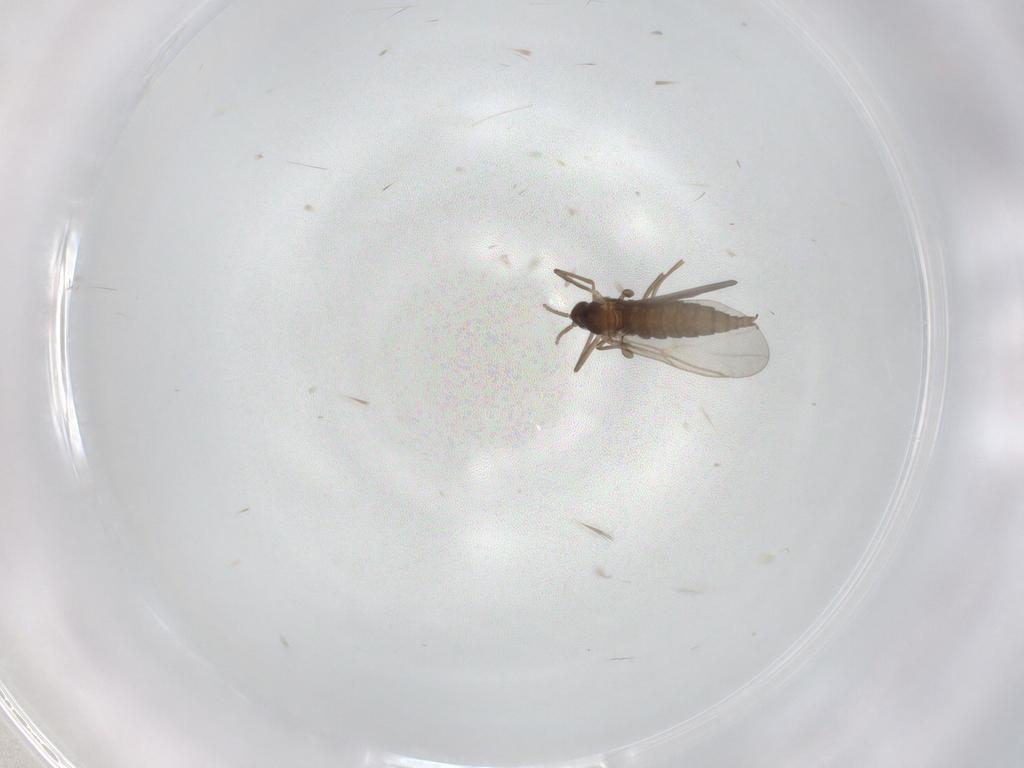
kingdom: Animalia
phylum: Arthropoda
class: Insecta
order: Diptera
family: Cecidomyiidae
